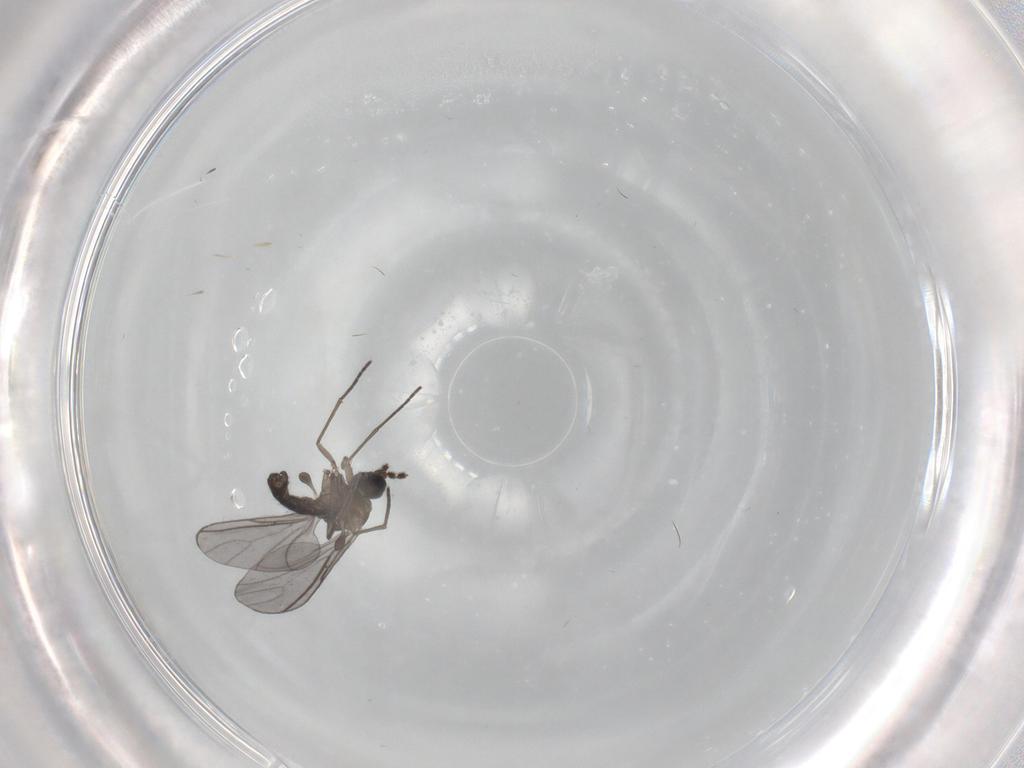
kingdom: Animalia
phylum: Arthropoda
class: Insecta
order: Diptera
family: Sciaridae
